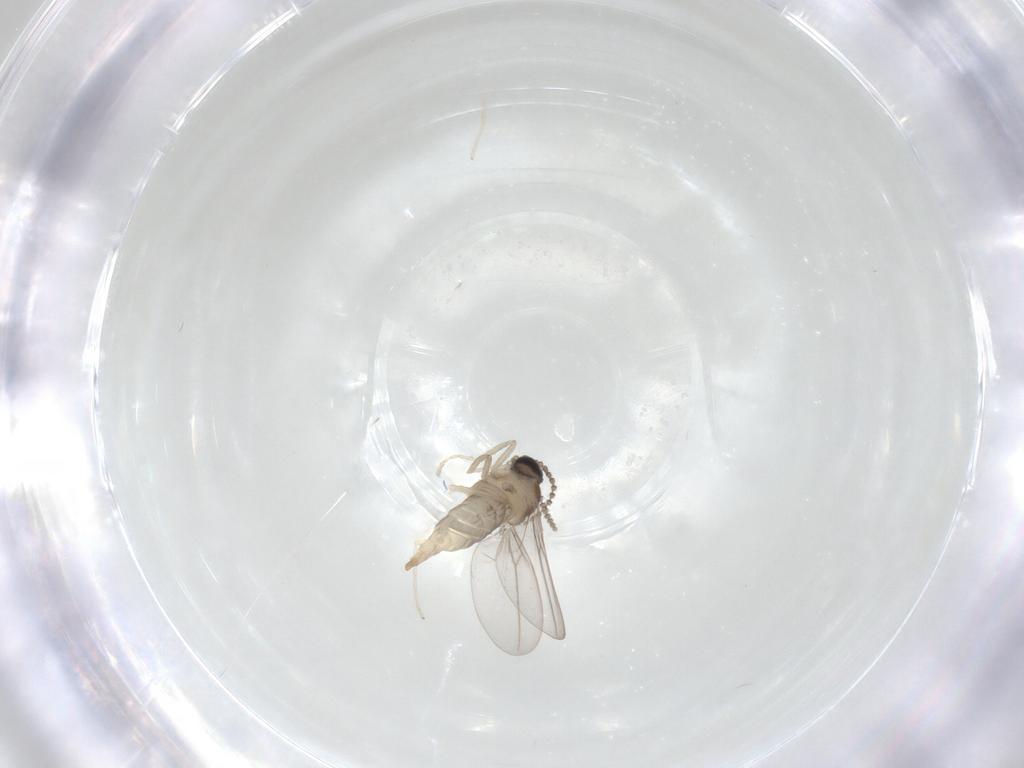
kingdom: Animalia
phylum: Arthropoda
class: Insecta
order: Diptera
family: Cecidomyiidae
